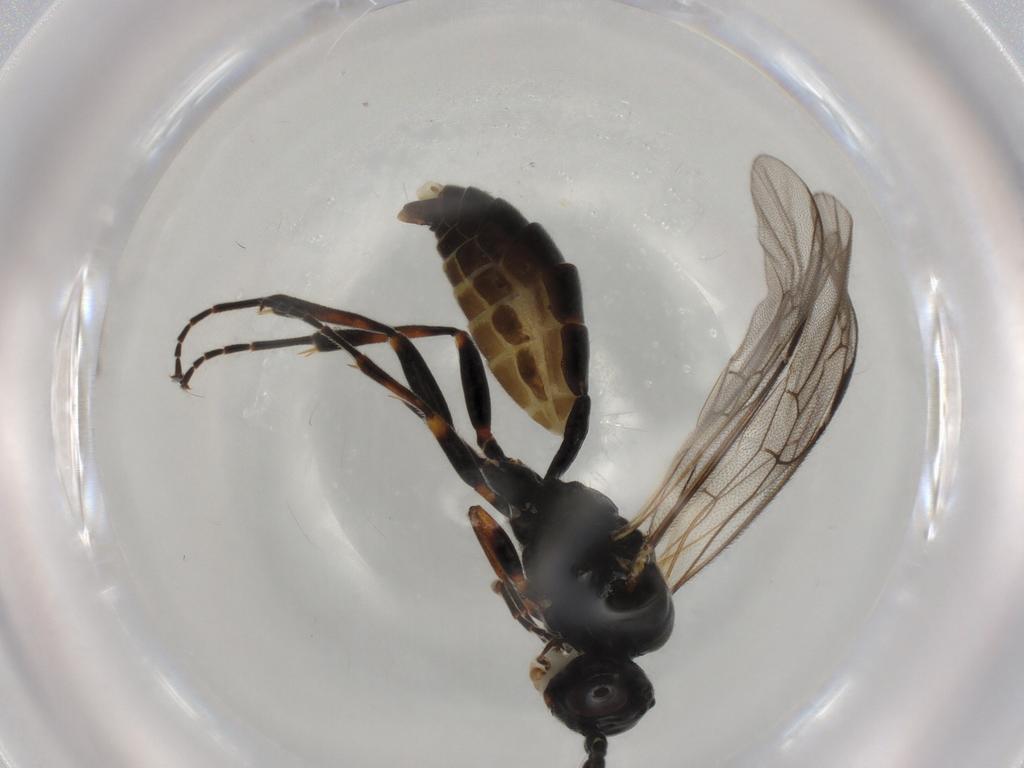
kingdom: Animalia
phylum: Arthropoda
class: Insecta
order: Hymenoptera
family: Ichneumonidae
